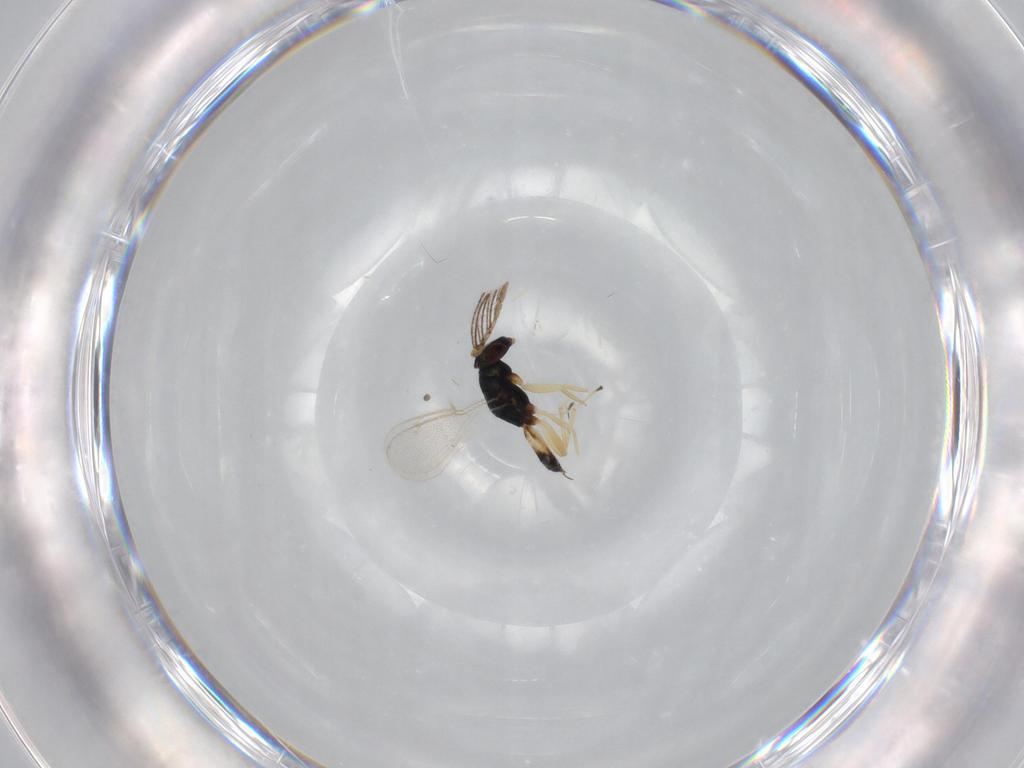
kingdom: Animalia
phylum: Arthropoda
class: Insecta
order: Hymenoptera
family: Eulophidae
